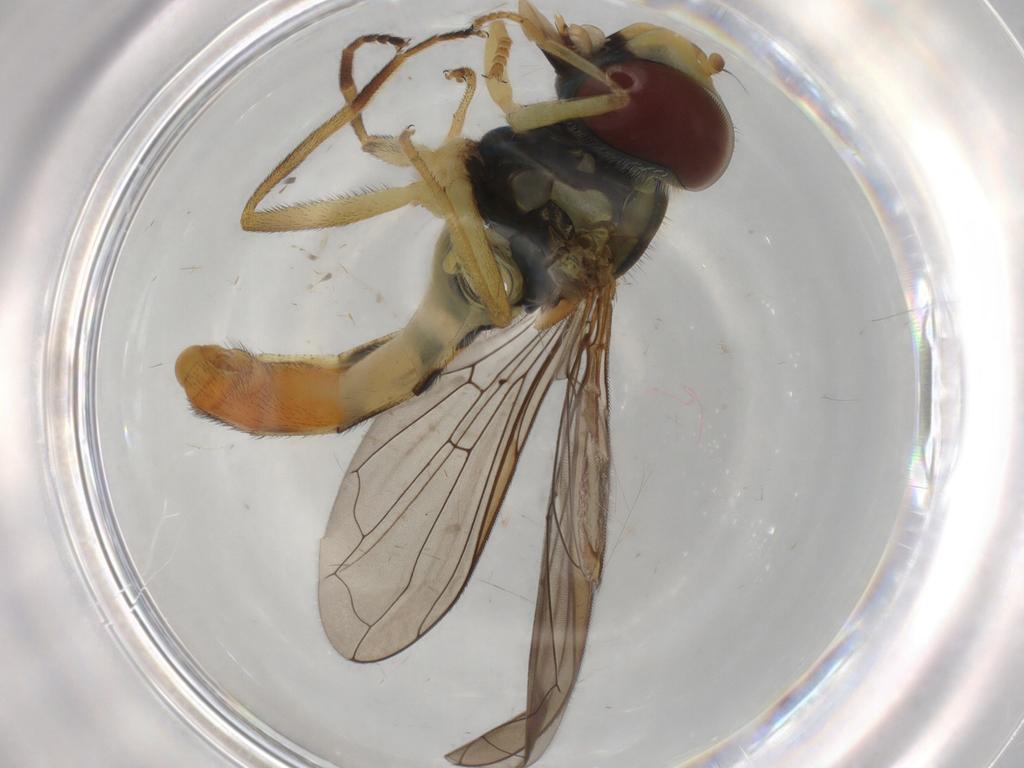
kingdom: Animalia
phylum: Arthropoda
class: Insecta
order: Diptera
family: Syrphidae
